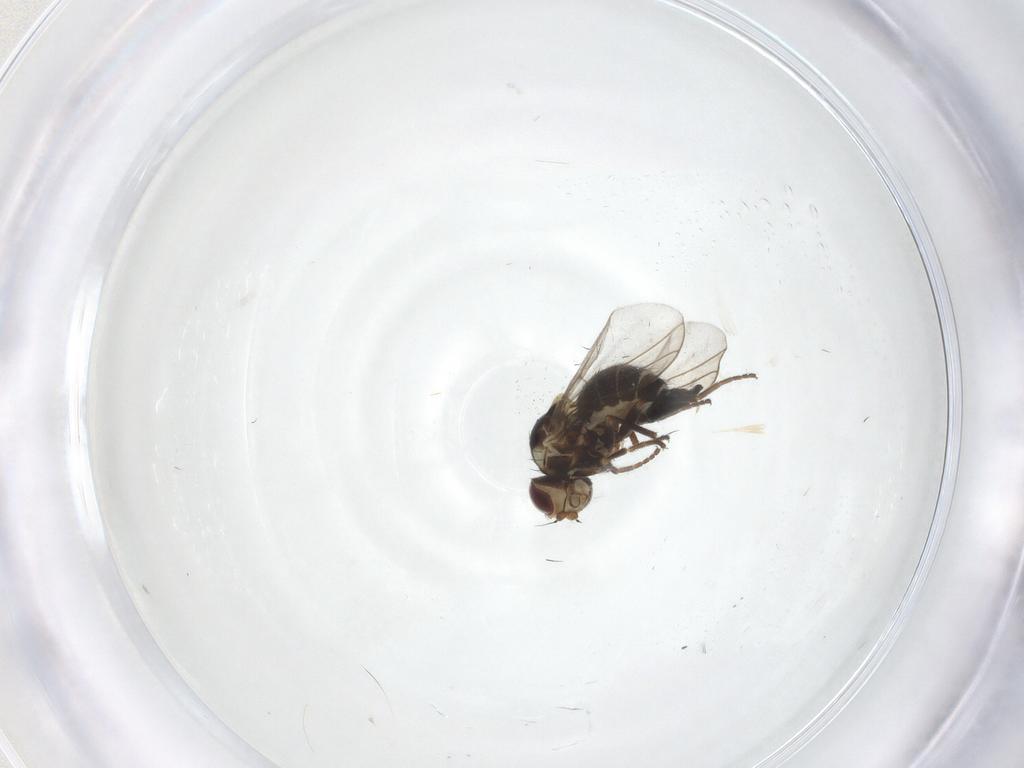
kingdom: Animalia
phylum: Arthropoda
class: Insecta
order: Diptera
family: Agromyzidae
